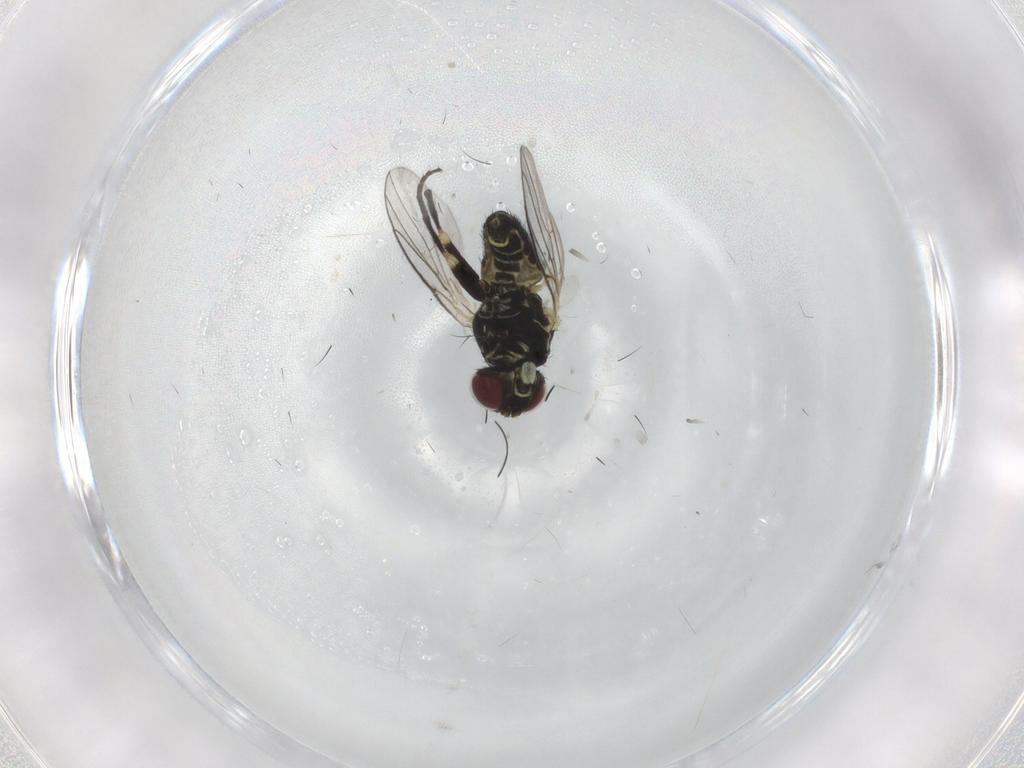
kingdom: Animalia
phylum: Arthropoda
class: Insecta
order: Diptera
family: Agromyzidae
